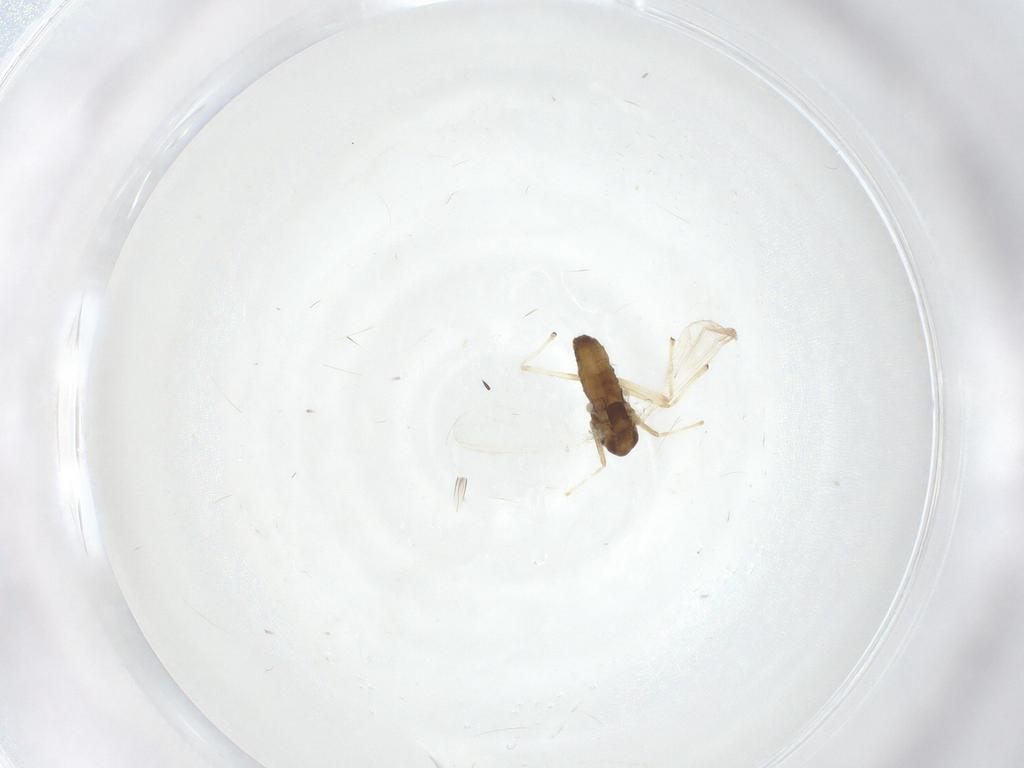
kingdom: Animalia
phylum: Arthropoda
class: Insecta
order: Diptera
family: Chironomidae
